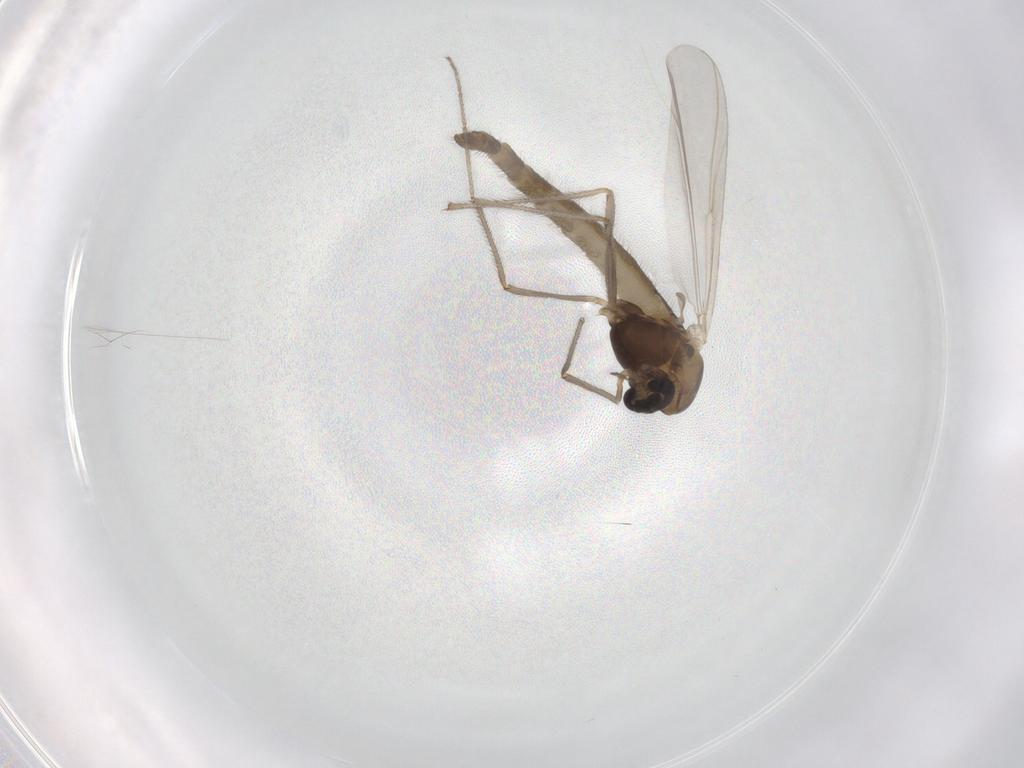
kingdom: Animalia
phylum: Arthropoda
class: Insecta
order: Diptera
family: Chironomidae
